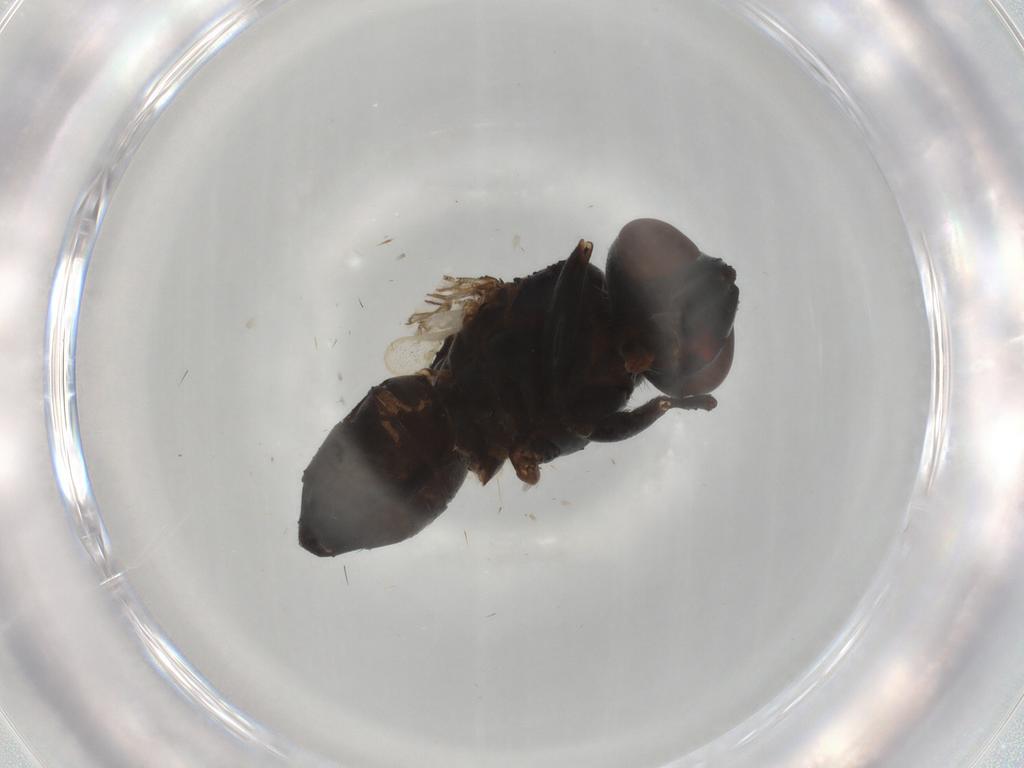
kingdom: Animalia
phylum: Arthropoda
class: Insecta
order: Diptera
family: Tachinidae
